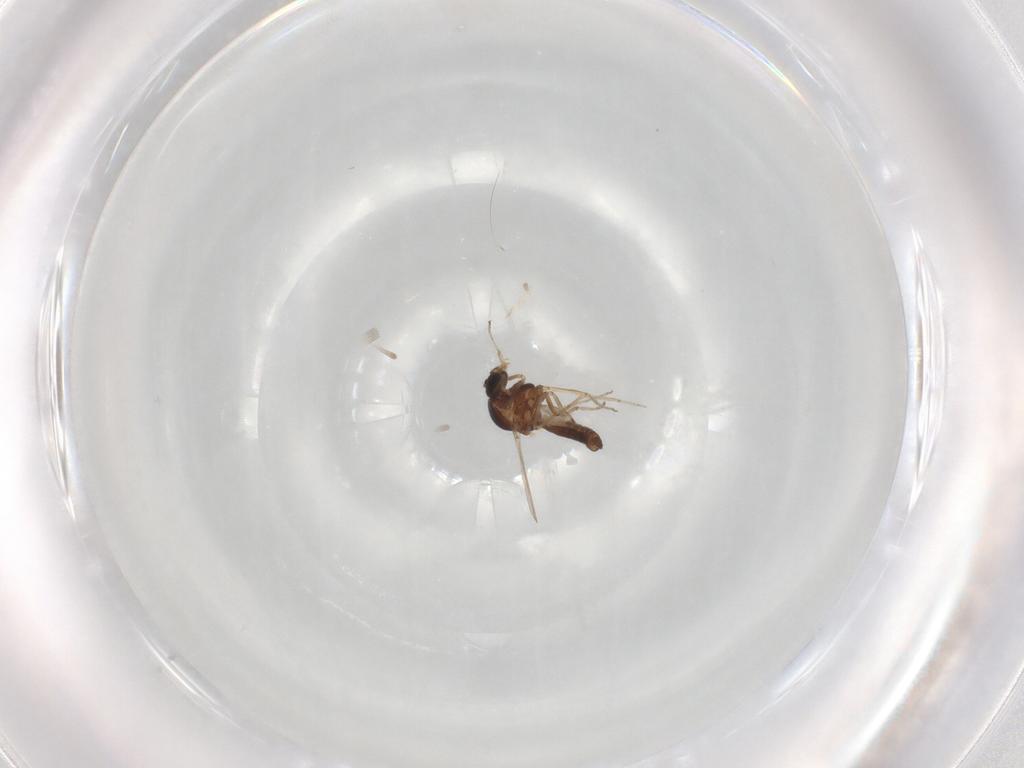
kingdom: Animalia
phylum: Arthropoda
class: Insecta
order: Diptera
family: Ceratopogonidae
